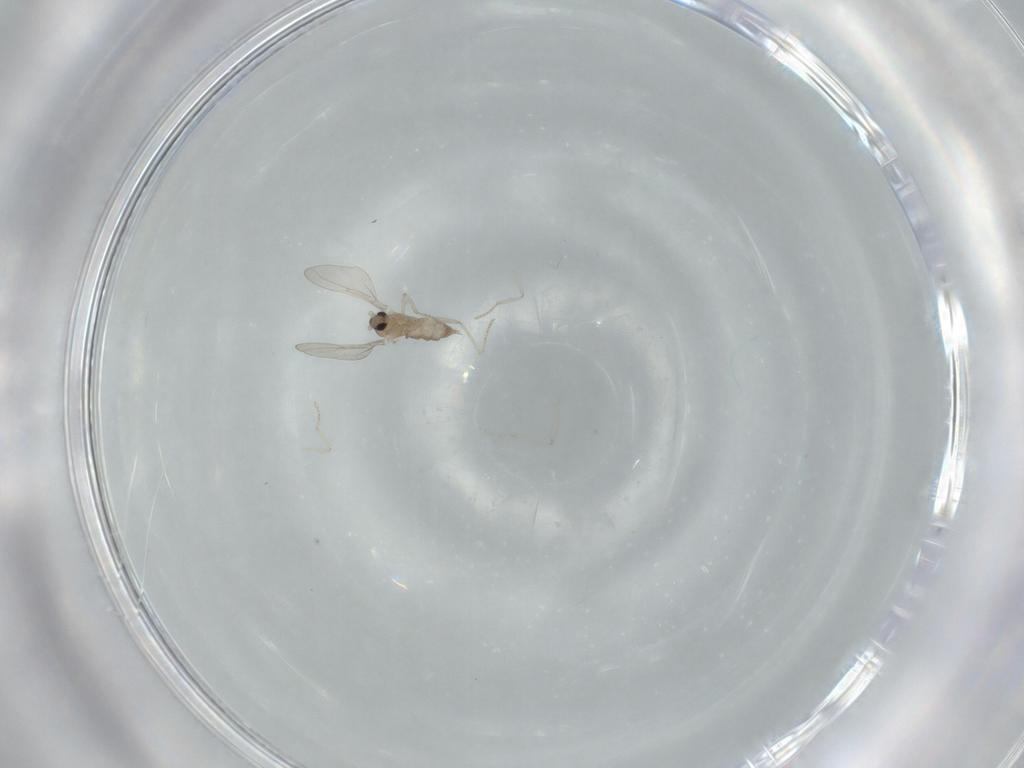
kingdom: Animalia
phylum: Arthropoda
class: Insecta
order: Diptera
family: Cecidomyiidae
